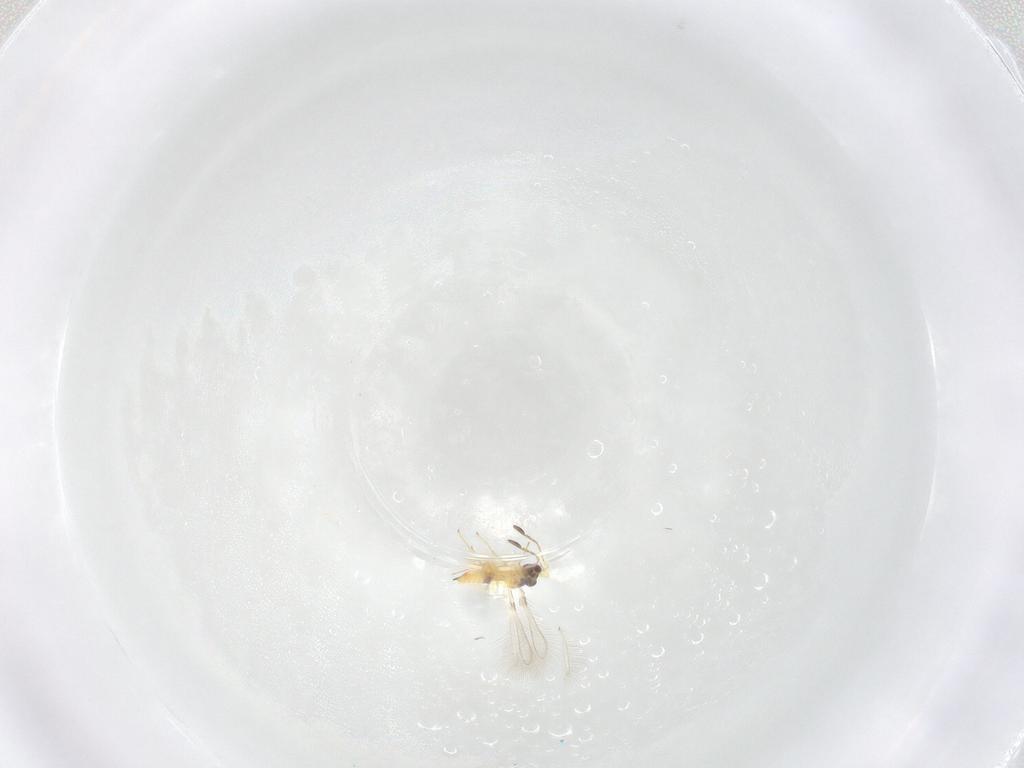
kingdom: Animalia
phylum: Arthropoda
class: Insecta
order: Hymenoptera
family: Mymaridae
